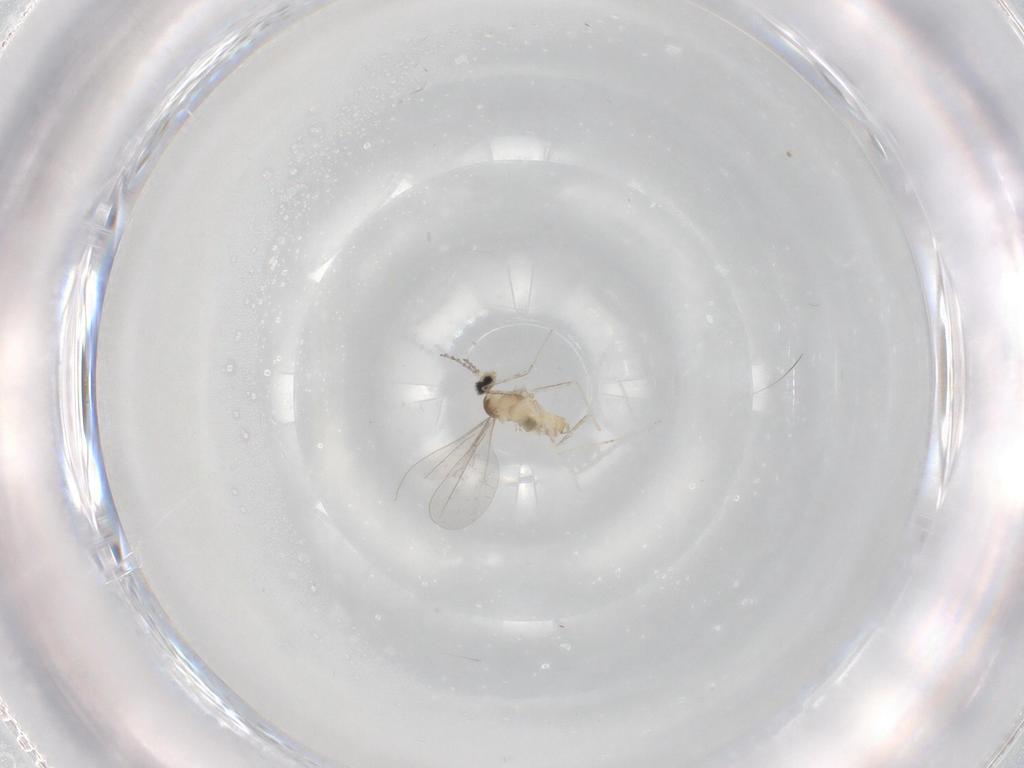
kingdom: Animalia
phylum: Arthropoda
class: Insecta
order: Diptera
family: Cecidomyiidae
